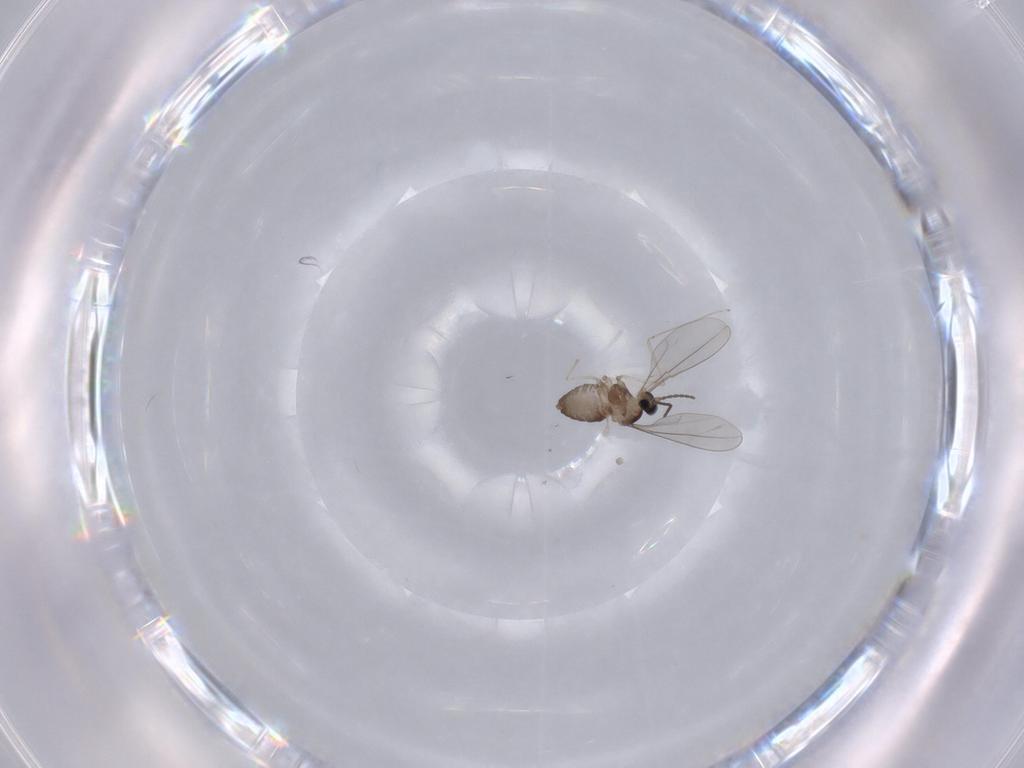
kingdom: Animalia
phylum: Arthropoda
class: Insecta
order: Diptera
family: Cecidomyiidae
